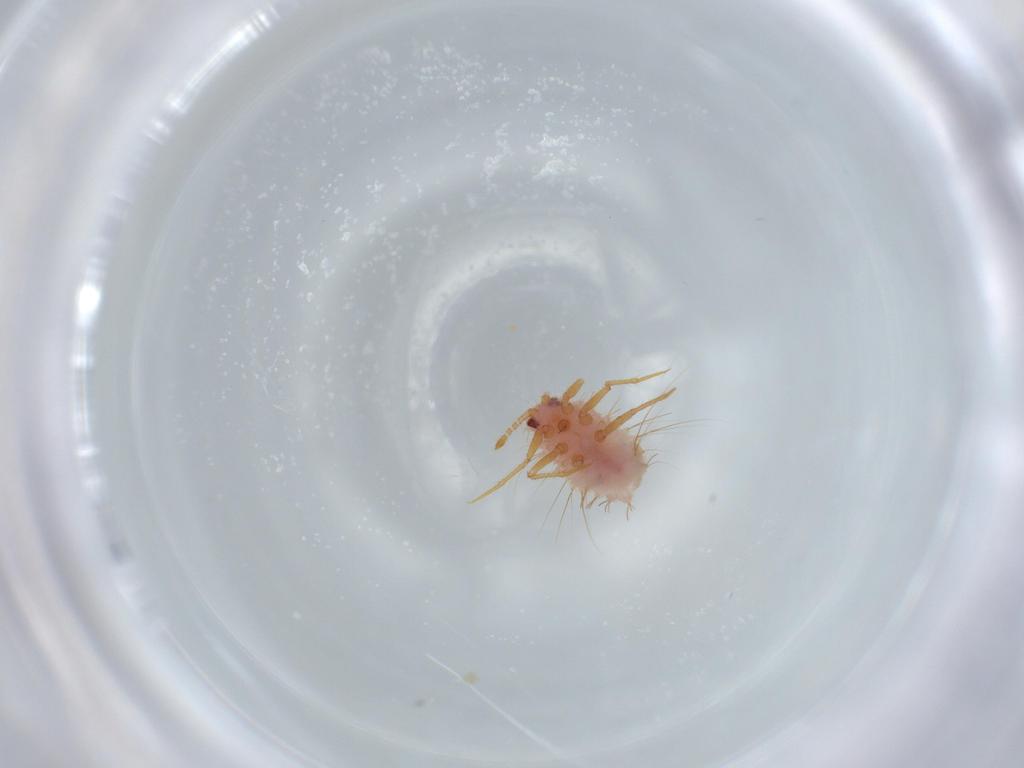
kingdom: Animalia
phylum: Arthropoda
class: Insecta
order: Hemiptera
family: Monophlebidae
